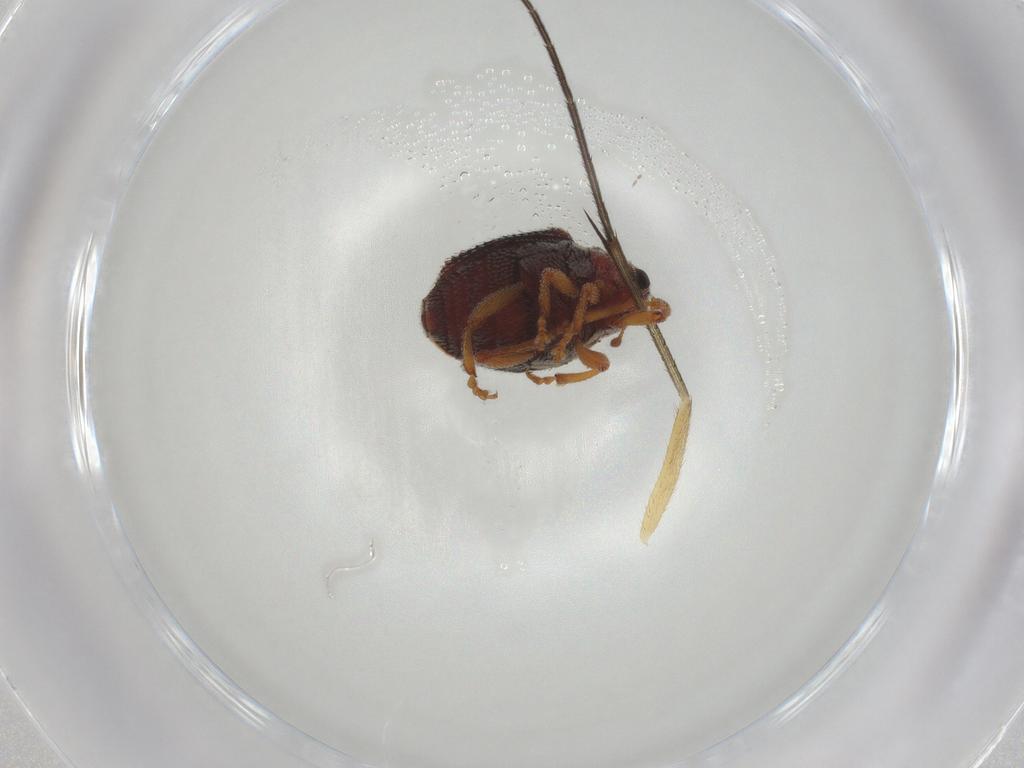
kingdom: Animalia
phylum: Arthropoda
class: Insecta
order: Coleoptera
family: Curculionidae
